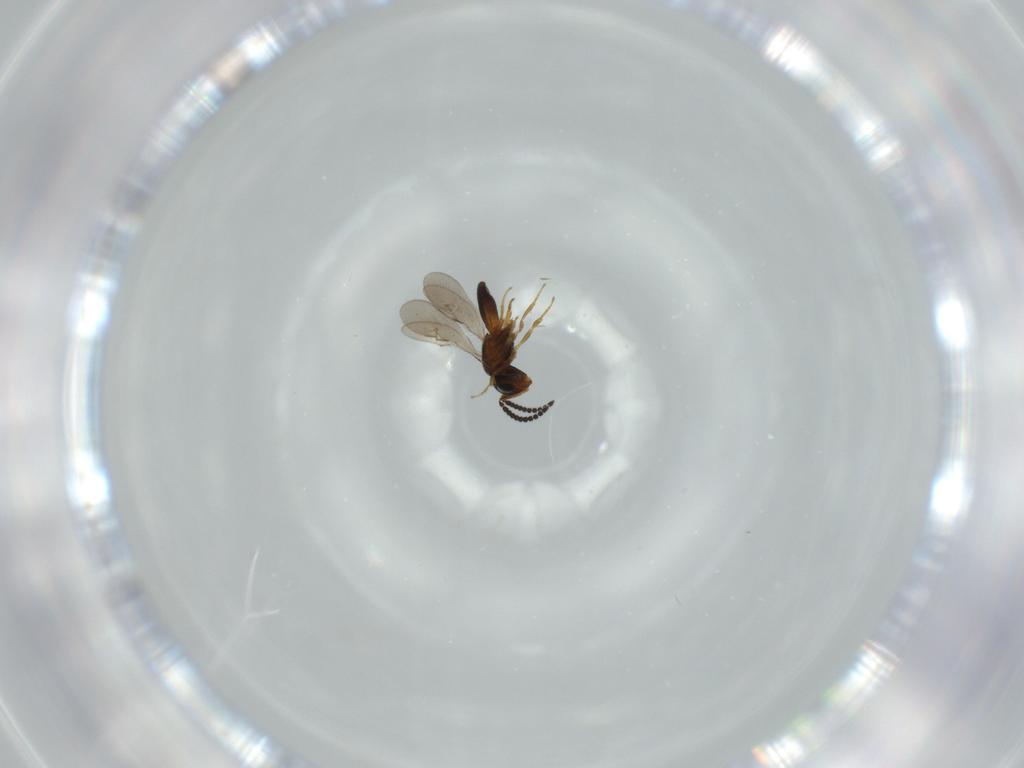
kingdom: Animalia
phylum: Arthropoda
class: Insecta
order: Hymenoptera
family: Scelionidae
